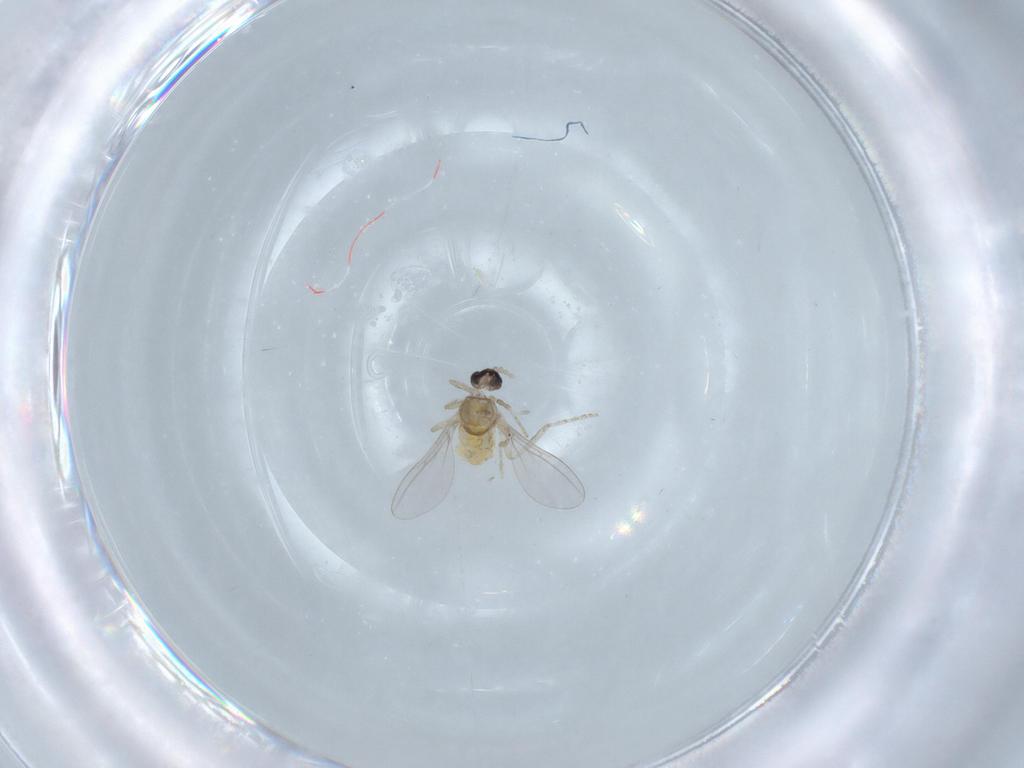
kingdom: Animalia
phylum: Arthropoda
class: Insecta
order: Diptera
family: Cecidomyiidae
